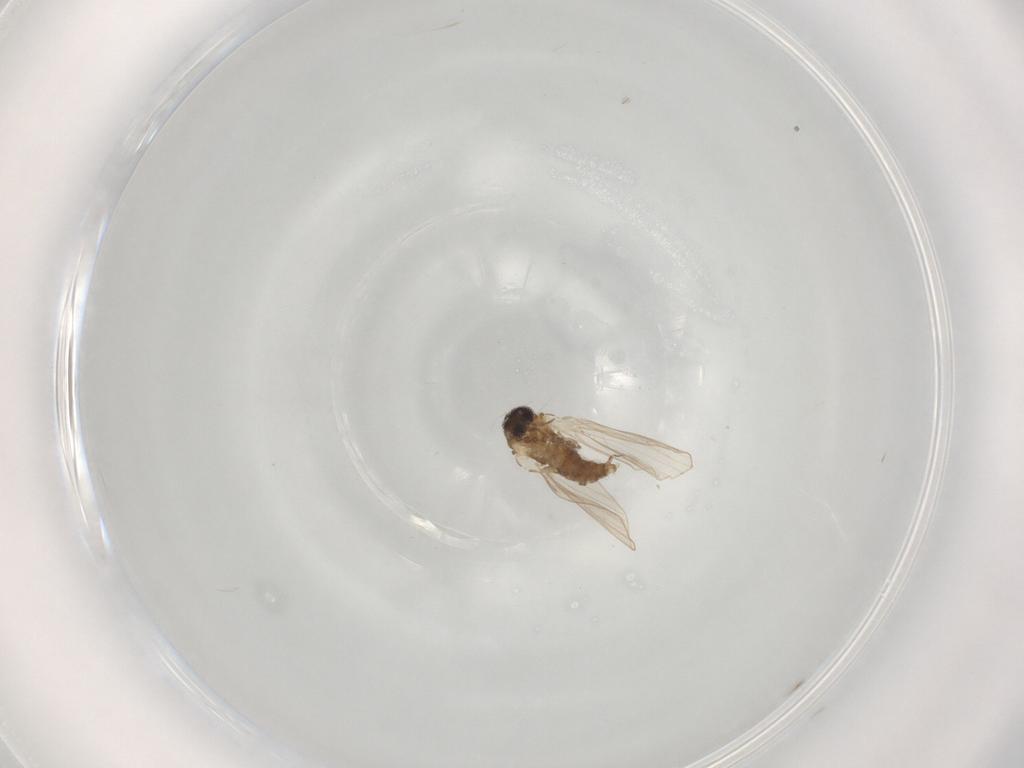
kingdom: Animalia
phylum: Arthropoda
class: Insecta
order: Diptera
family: Psychodidae
